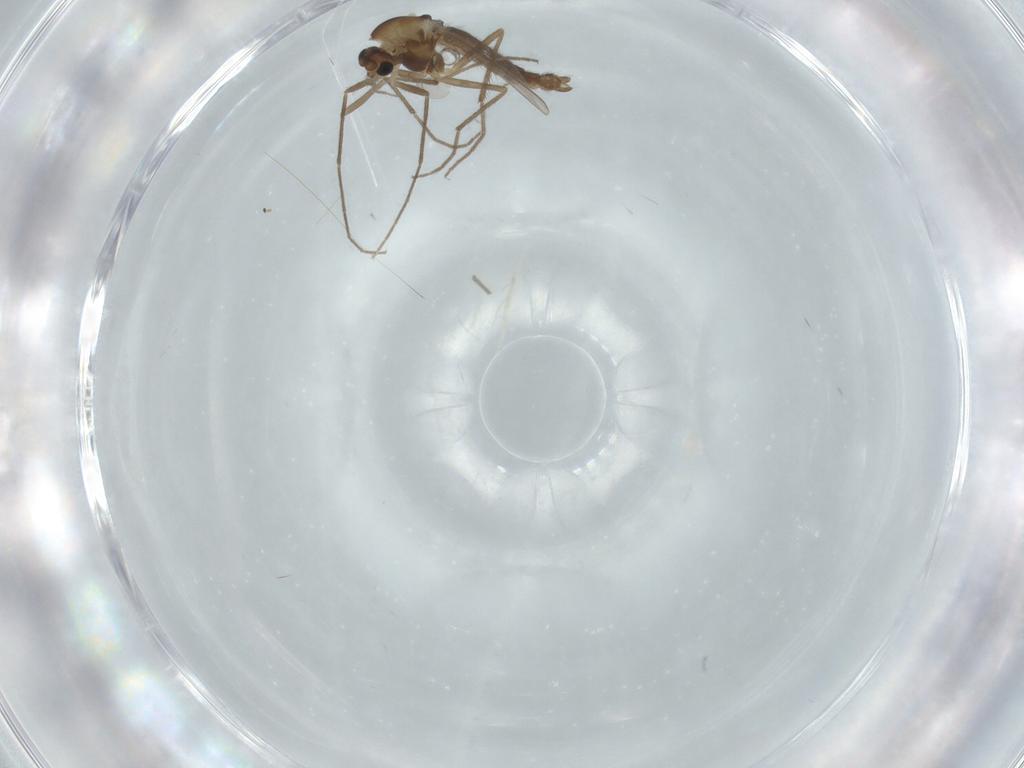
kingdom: Animalia
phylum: Arthropoda
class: Insecta
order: Diptera
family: Chironomidae
